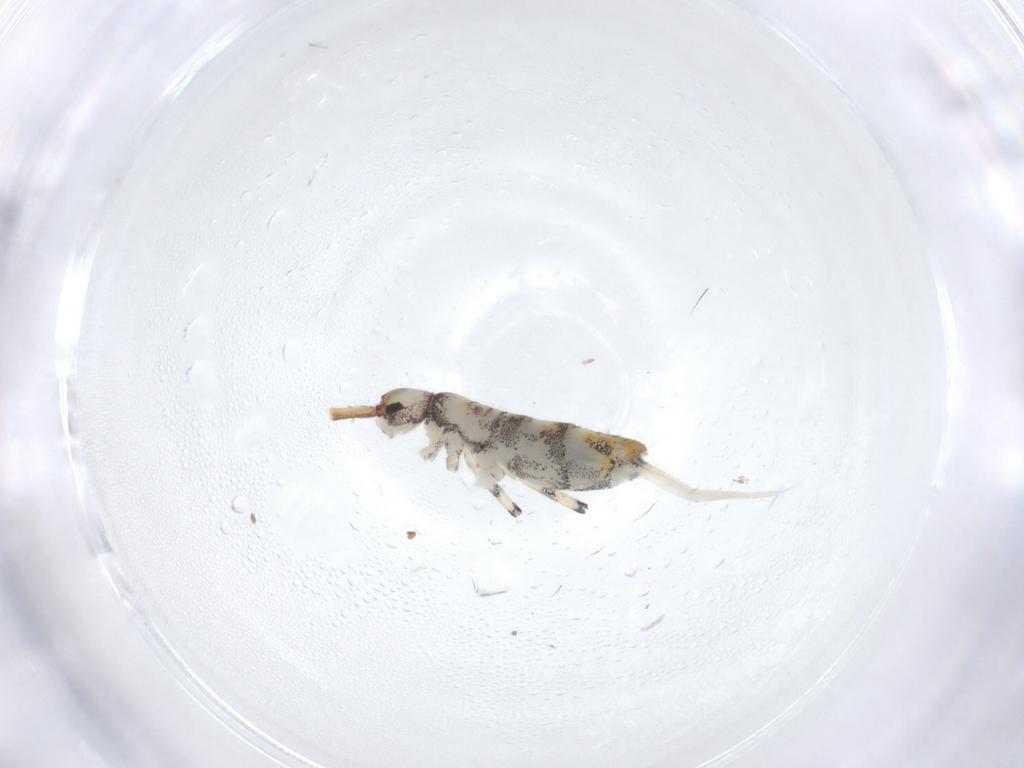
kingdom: Animalia
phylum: Arthropoda
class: Collembola
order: Entomobryomorpha
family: Entomobryidae
